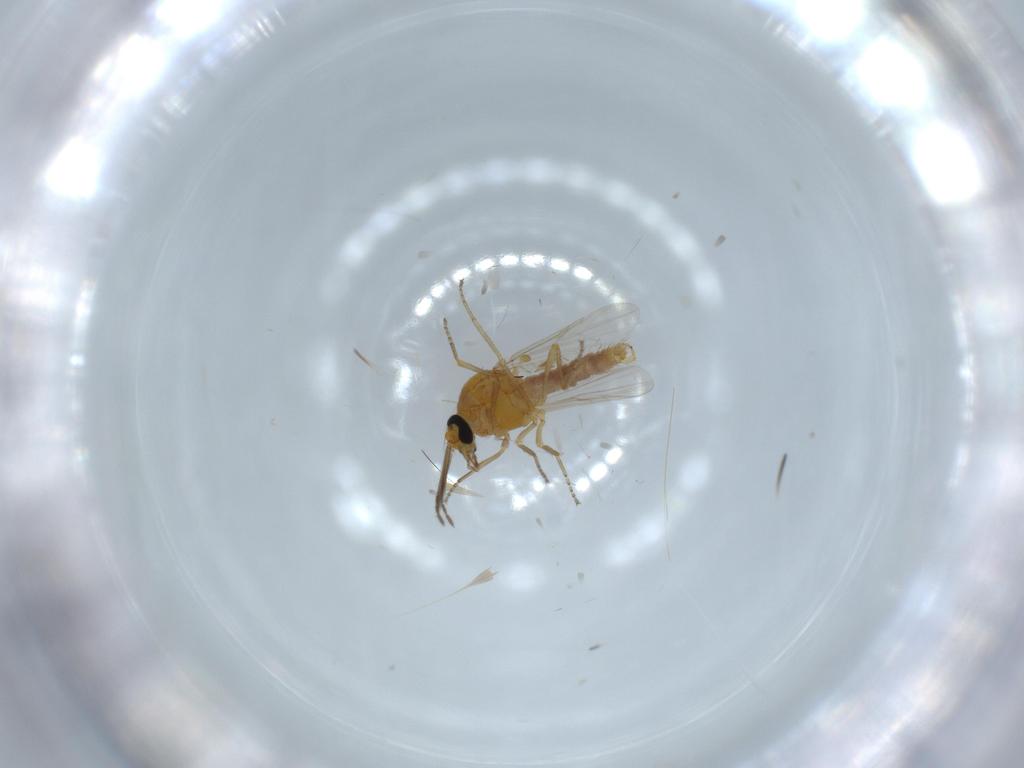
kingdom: Animalia
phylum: Arthropoda
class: Insecta
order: Diptera
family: Ceratopogonidae
